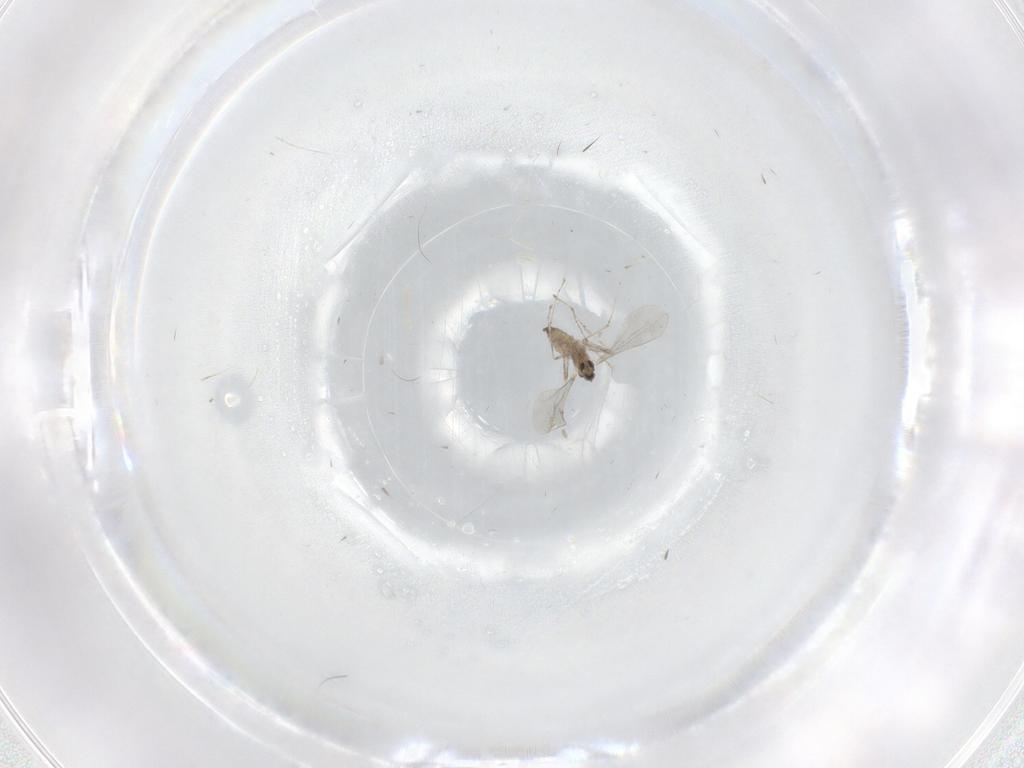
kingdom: Animalia
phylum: Arthropoda
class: Insecta
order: Diptera
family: Cecidomyiidae
